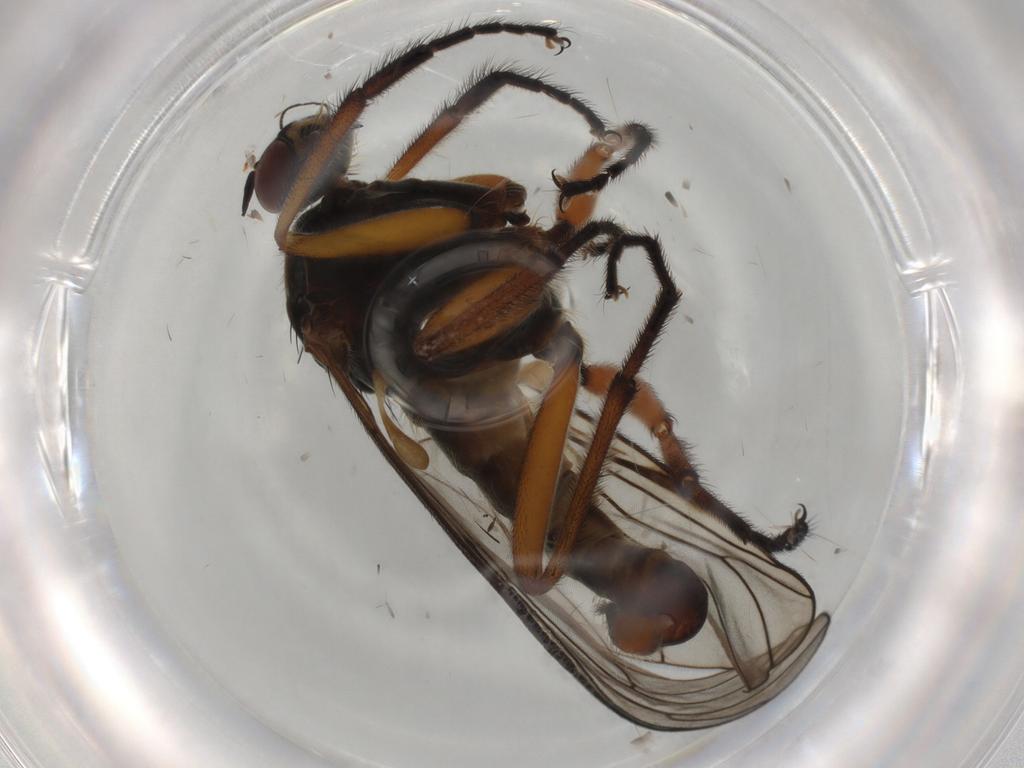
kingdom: Animalia
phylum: Arthropoda
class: Insecta
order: Diptera
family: Empididae
